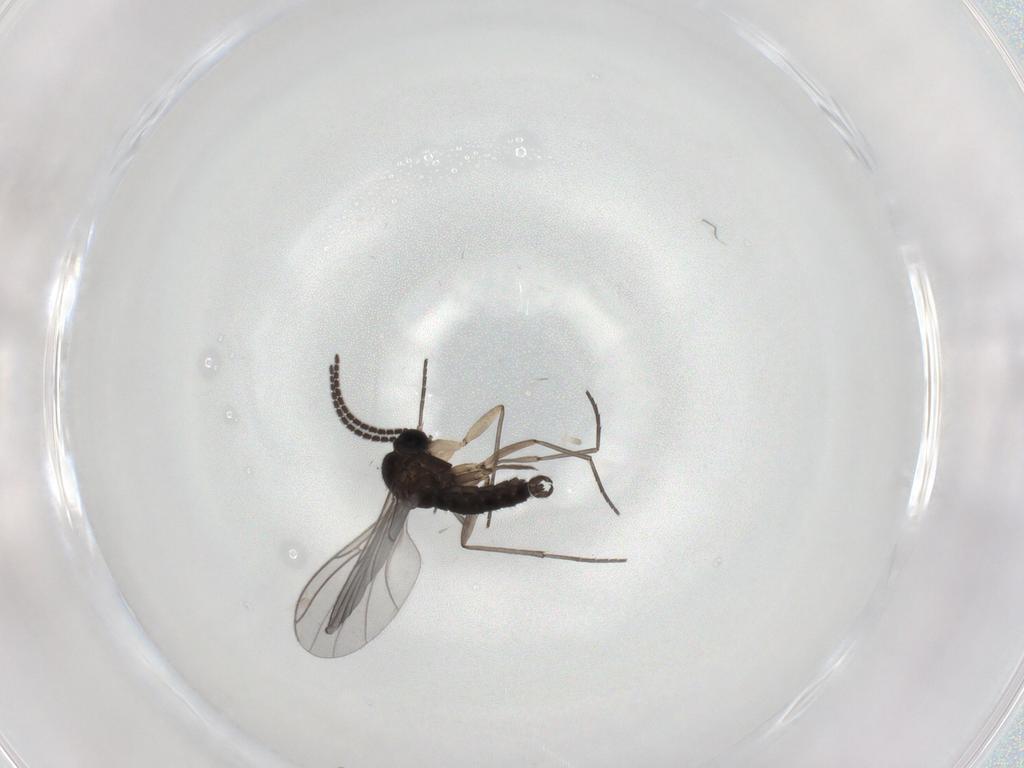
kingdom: Animalia
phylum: Arthropoda
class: Insecta
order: Diptera
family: Sciaridae
